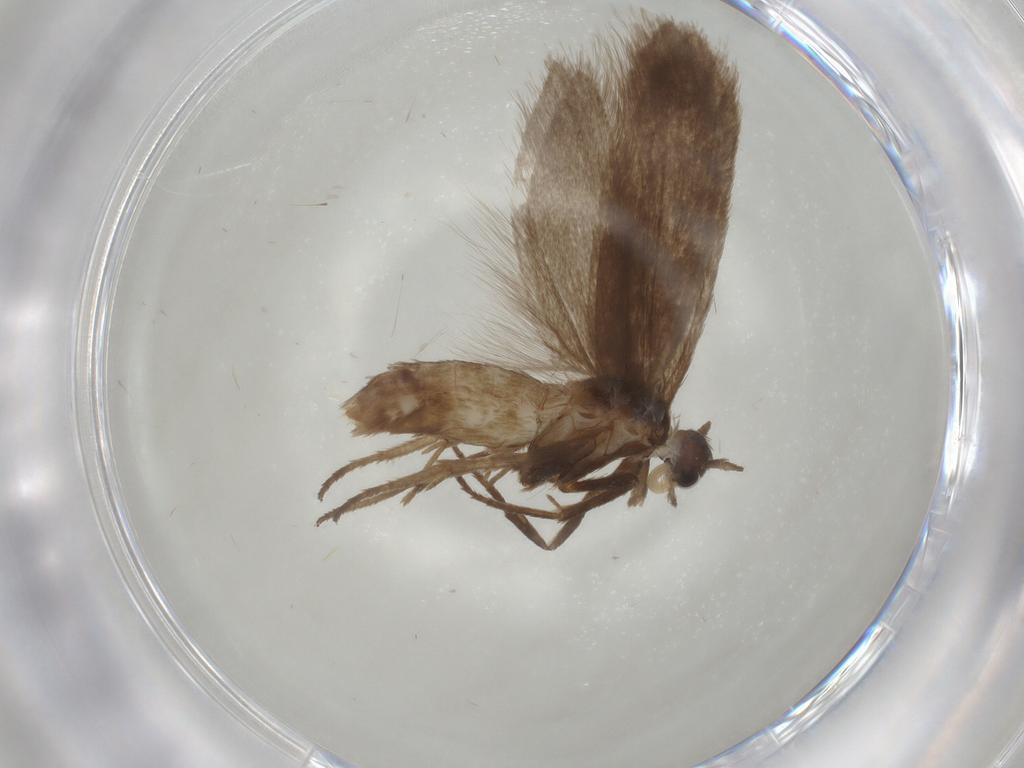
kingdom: Animalia
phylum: Arthropoda
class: Insecta
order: Lepidoptera
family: Limacodidae
